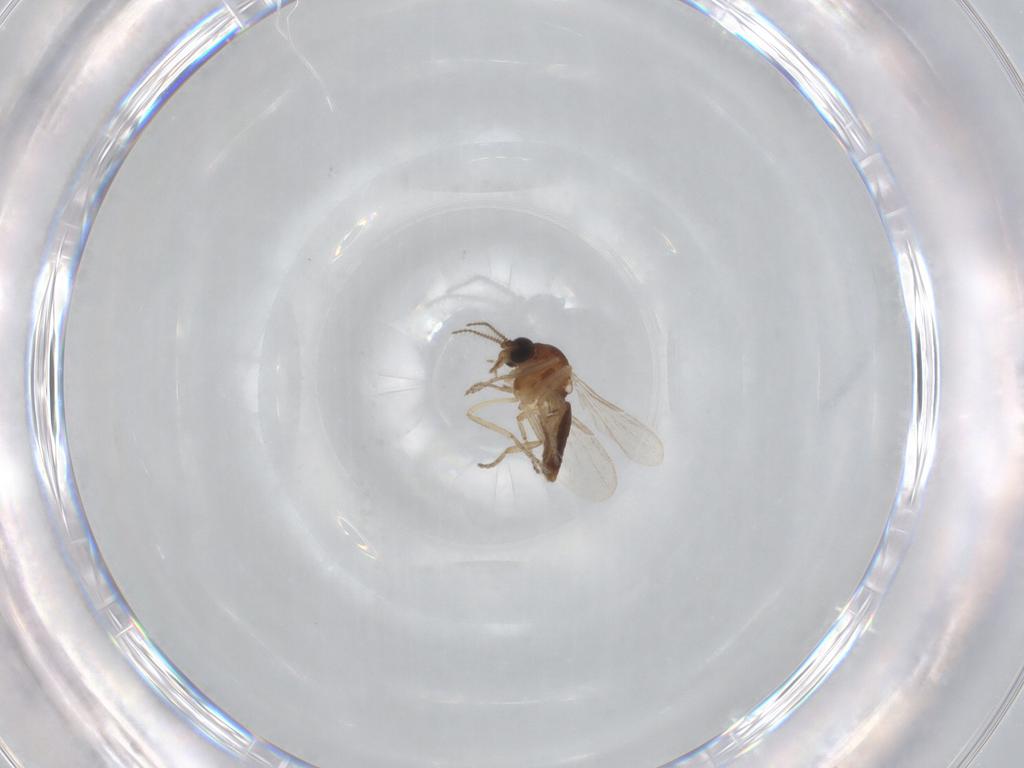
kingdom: Animalia
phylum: Arthropoda
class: Insecta
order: Diptera
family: Ceratopogonidae
